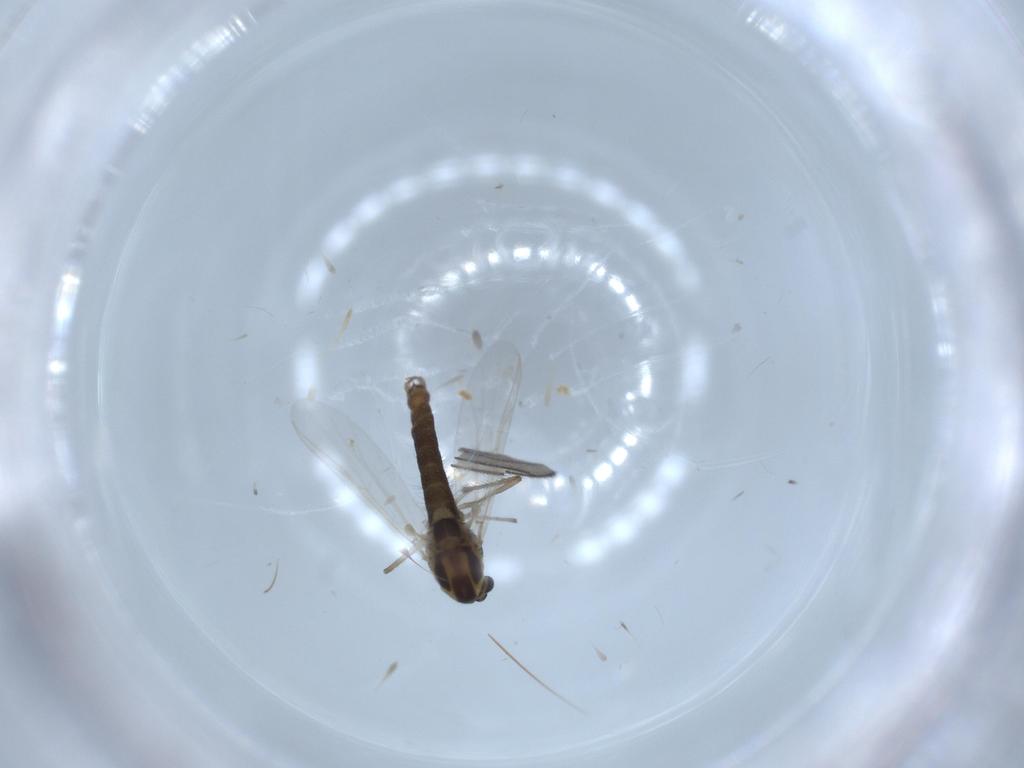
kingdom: Animalia
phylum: Arthropoda
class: Insecta
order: Diptera
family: Chironomidae
